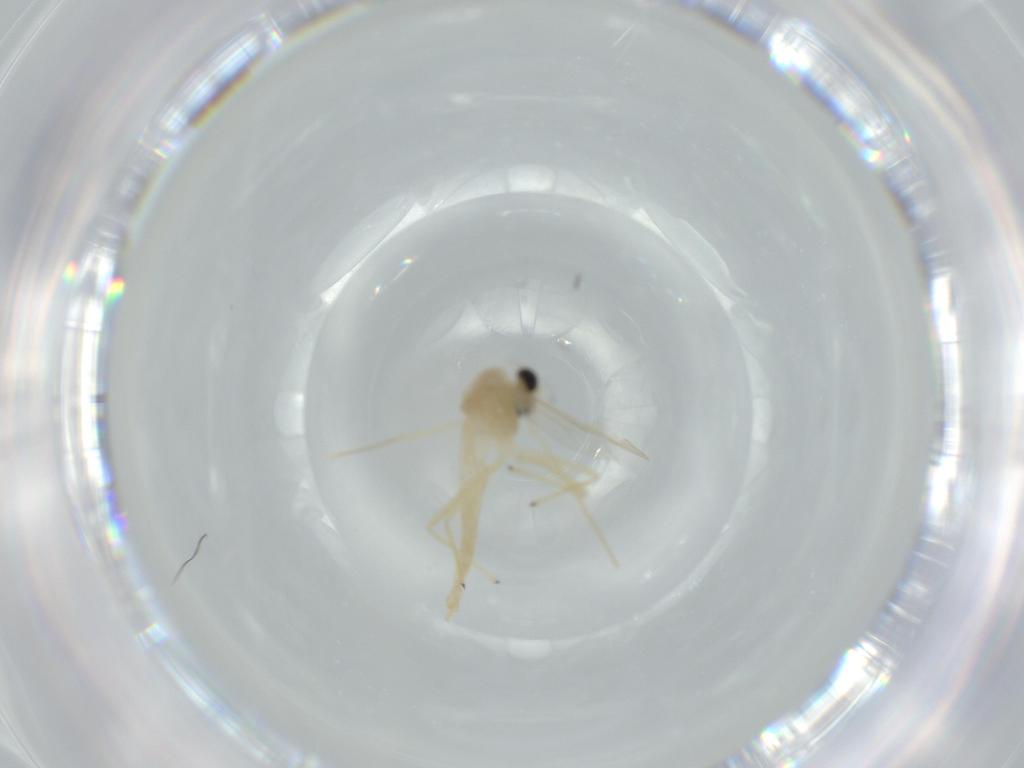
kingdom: Animalia
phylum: Arthropoda
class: Insecta
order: Diptera
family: Chironomidae
